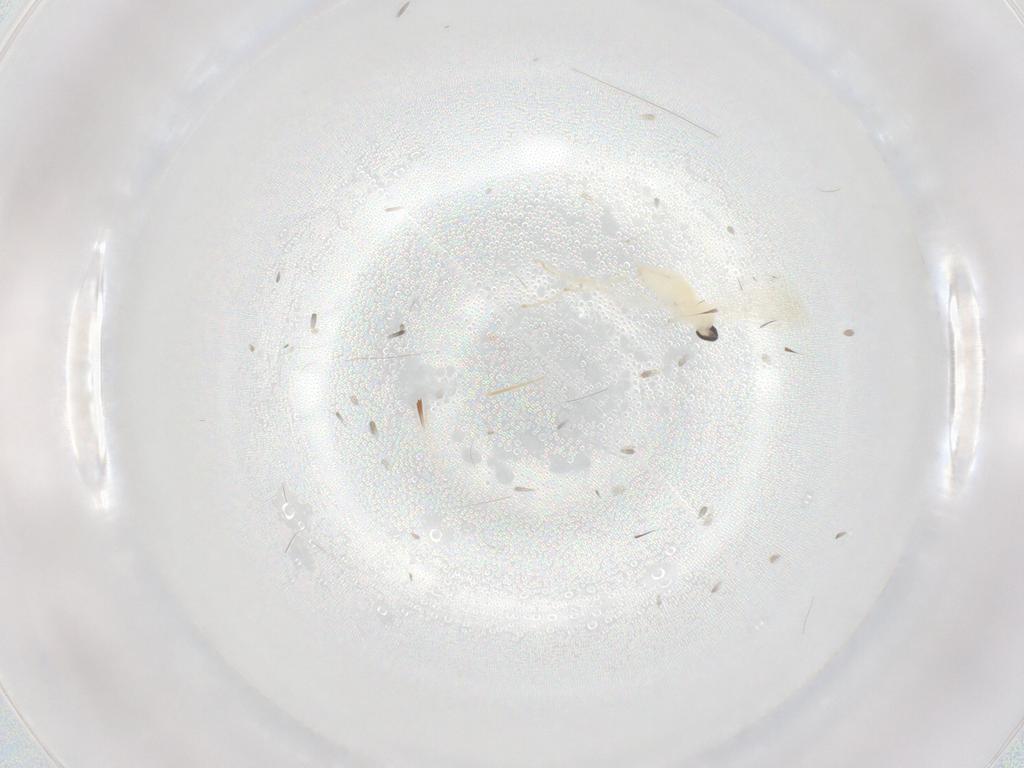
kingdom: Animalia
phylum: Arthropoda
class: Insecta
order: Diptera
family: Cecidomyiidae
